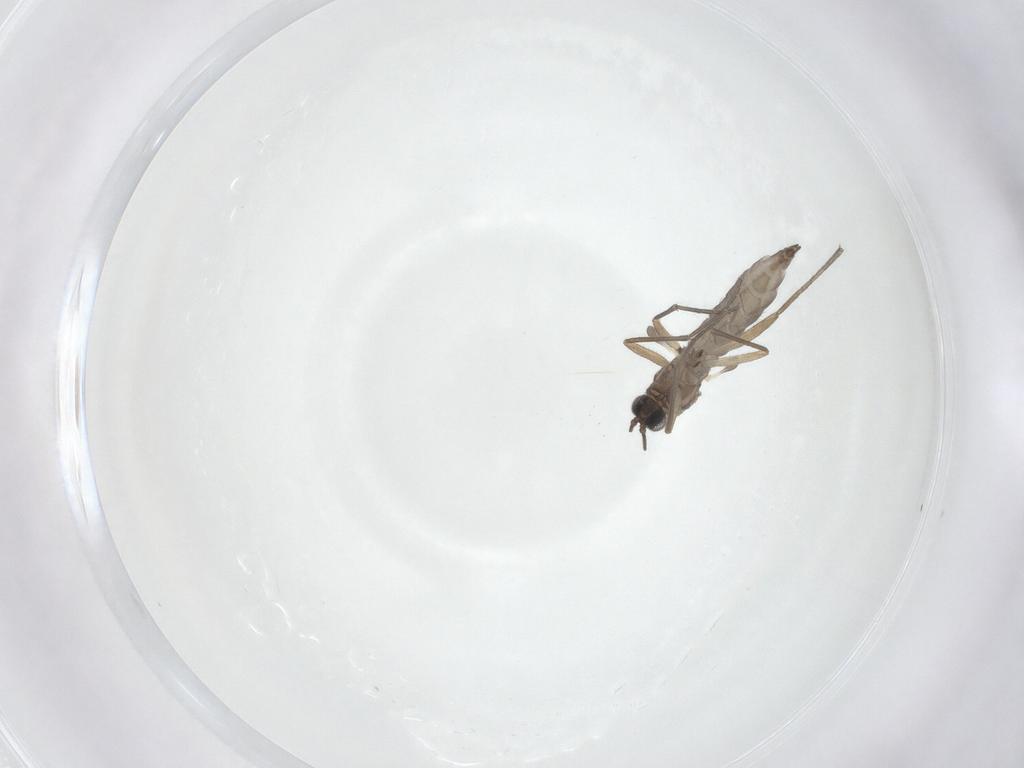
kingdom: Animalia
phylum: Arthropoda
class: Insecta
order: Diptera
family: Sciaridae
